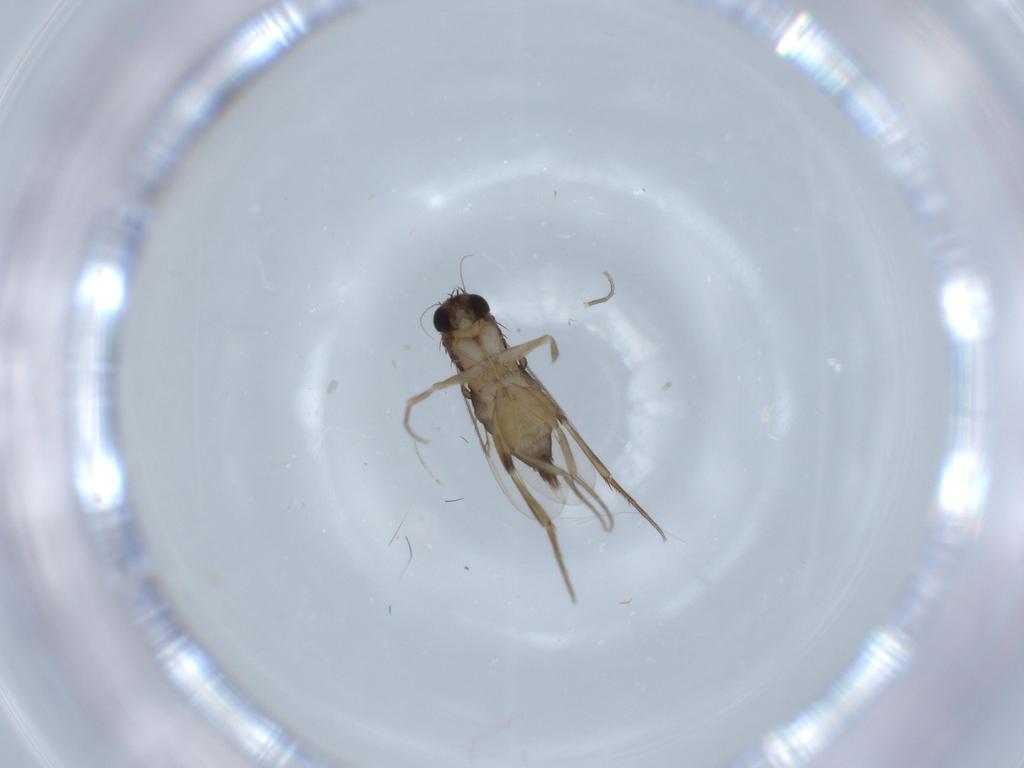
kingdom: Animalia
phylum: Arthropoda
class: Insecta
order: Diptera
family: Phoridae
